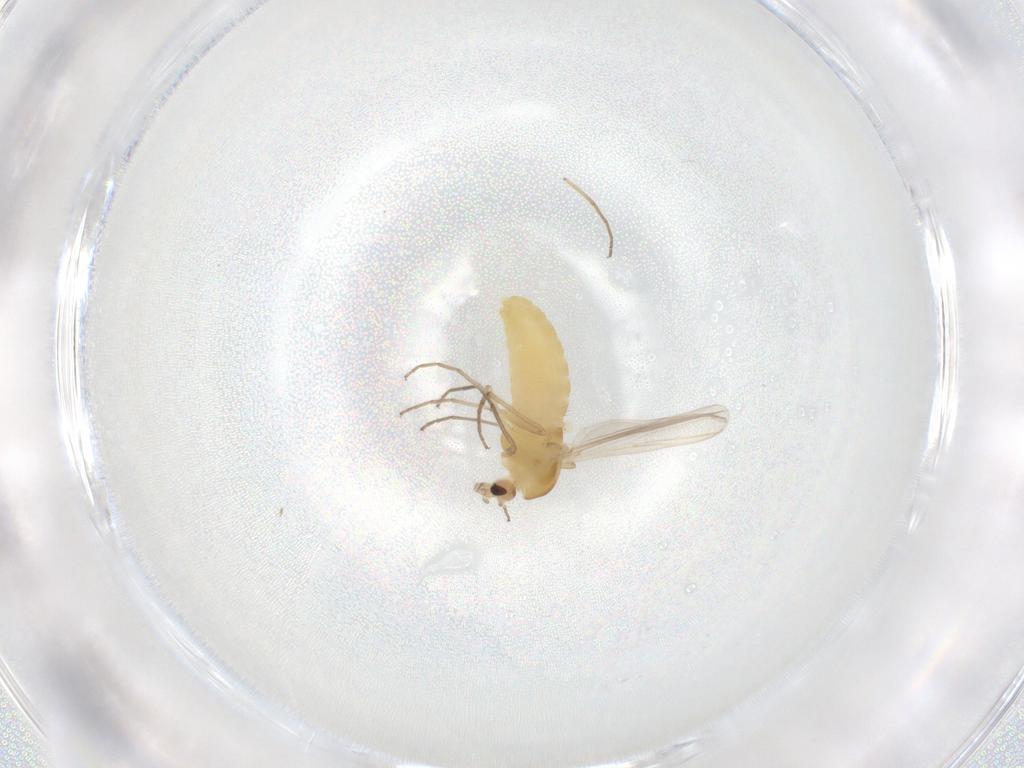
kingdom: Animalia
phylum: Arthropoda
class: Insecta
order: Diptera
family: Chironomidae
